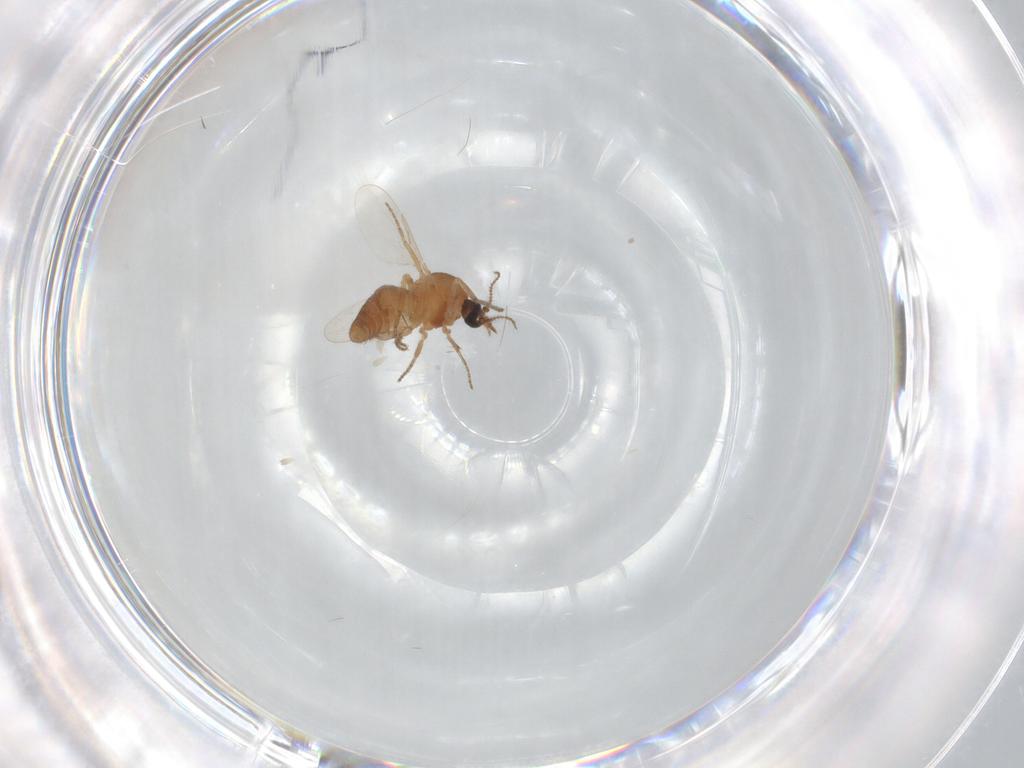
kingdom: Animalia
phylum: Arthropoda
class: Insecta
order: Diptera
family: Ceratopogonidae
